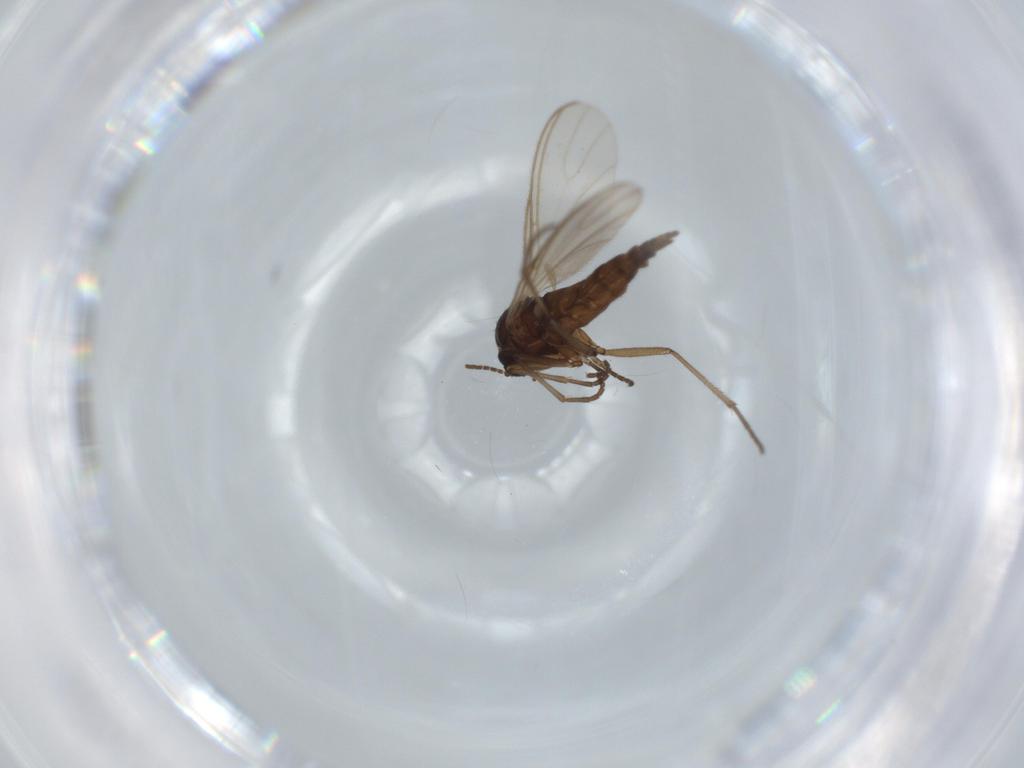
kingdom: Animalia
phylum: Arthropoda
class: Insecta
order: Diptera
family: Sciaridae
